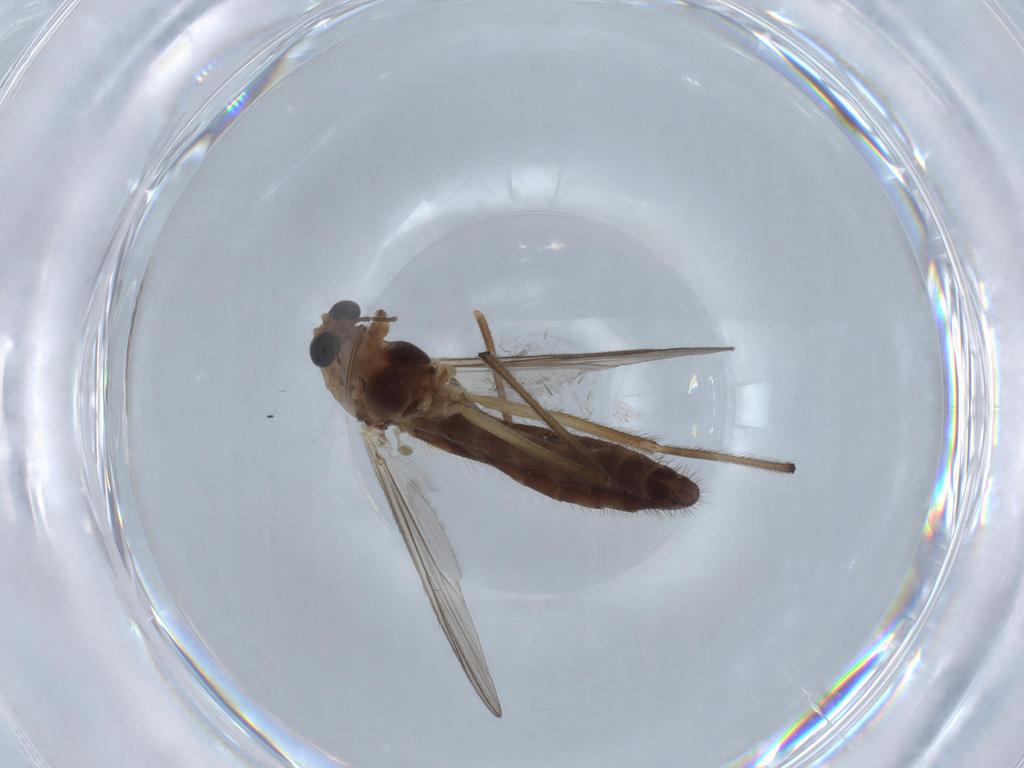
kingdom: Animalia
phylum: Arthropoda
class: Insecta
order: Diptera
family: Chironomidae
